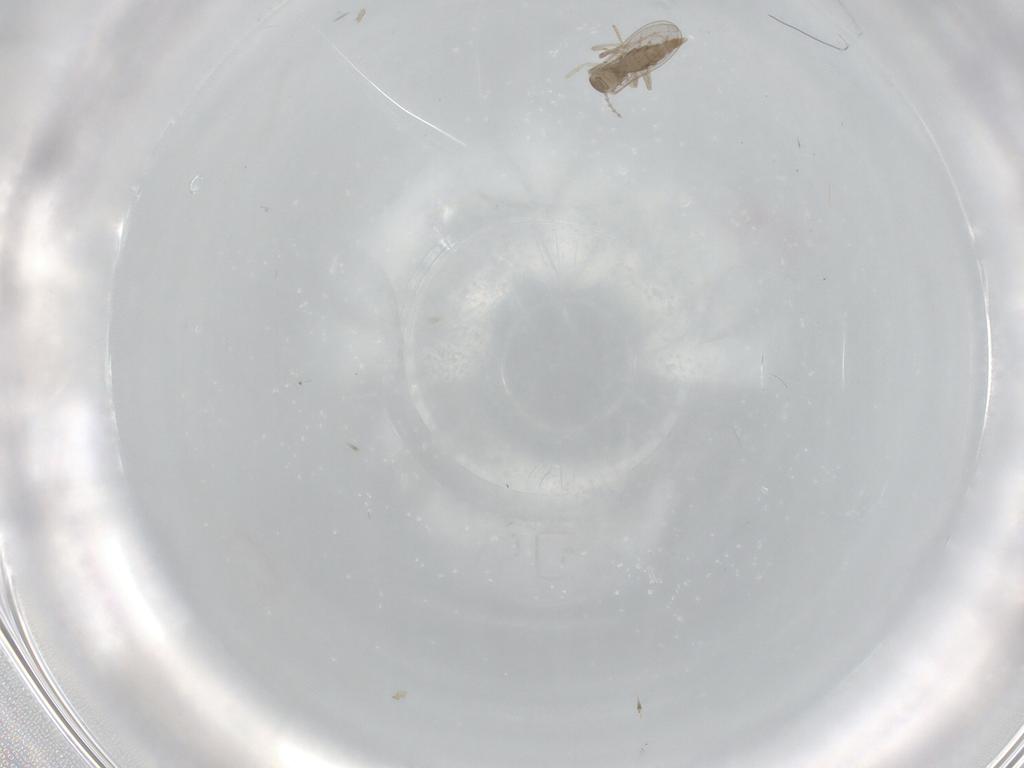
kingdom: Animalia
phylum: Arthropoda
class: Insecta
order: Diptera
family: Cecidomyiidae
